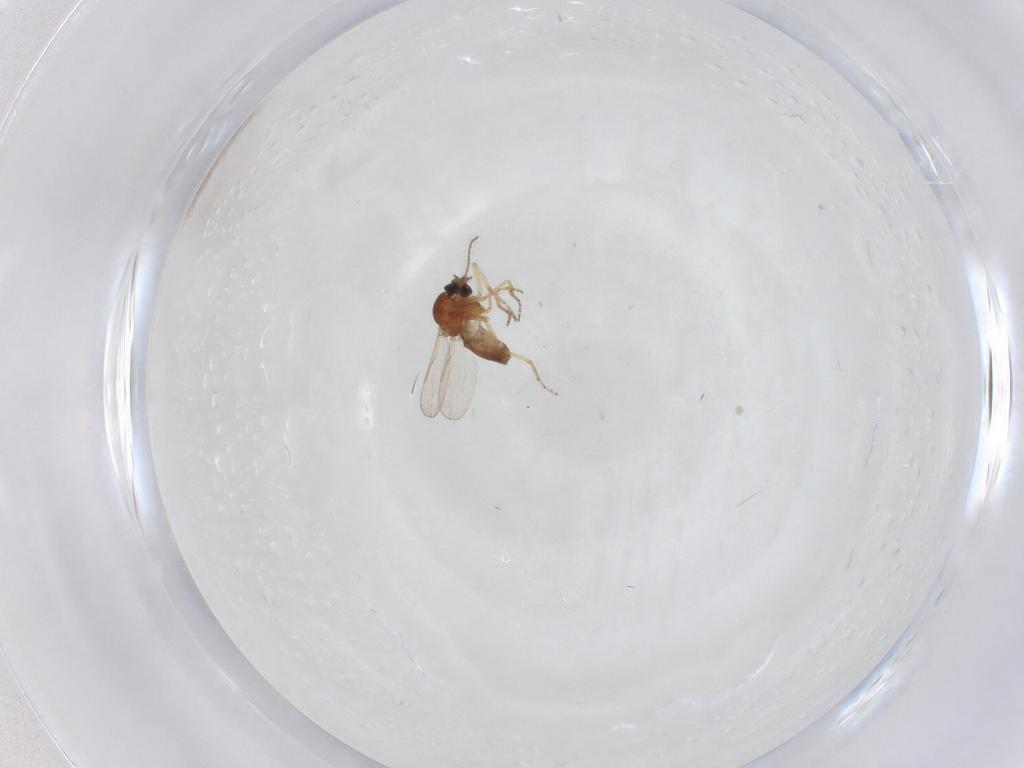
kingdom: Animalia
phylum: Arthropoda
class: Insecta
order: Diptera
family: Ceratopogonidae
